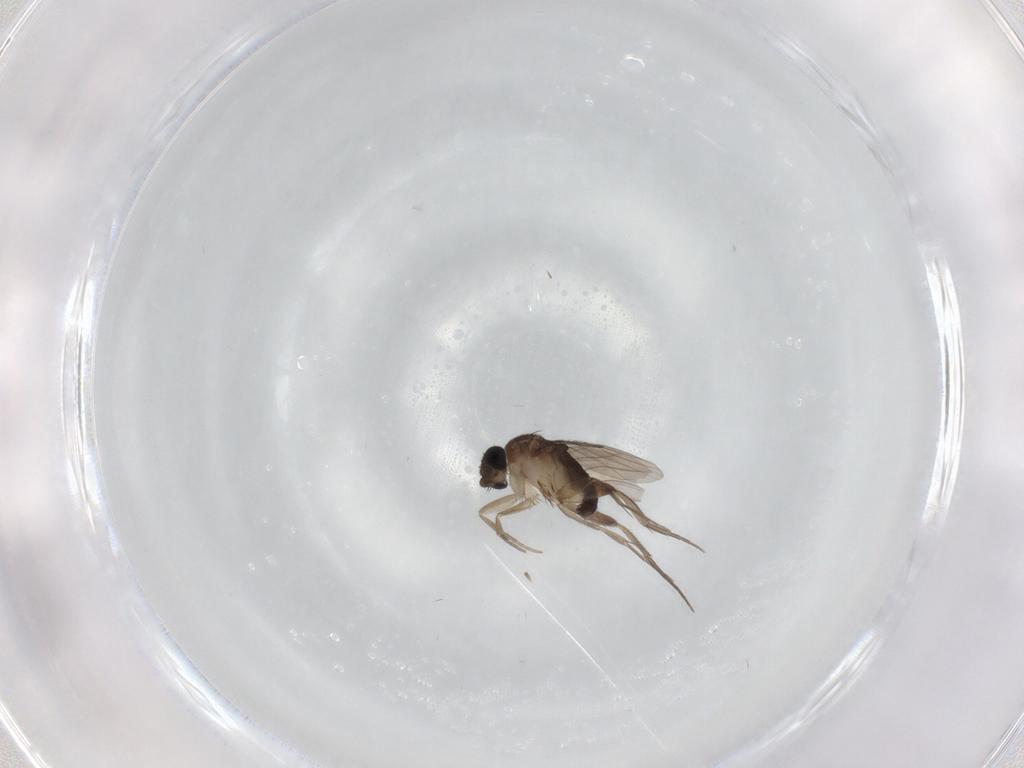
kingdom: Animalia
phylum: Arthropoda
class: Insecta
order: Diptera
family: Phoridae
